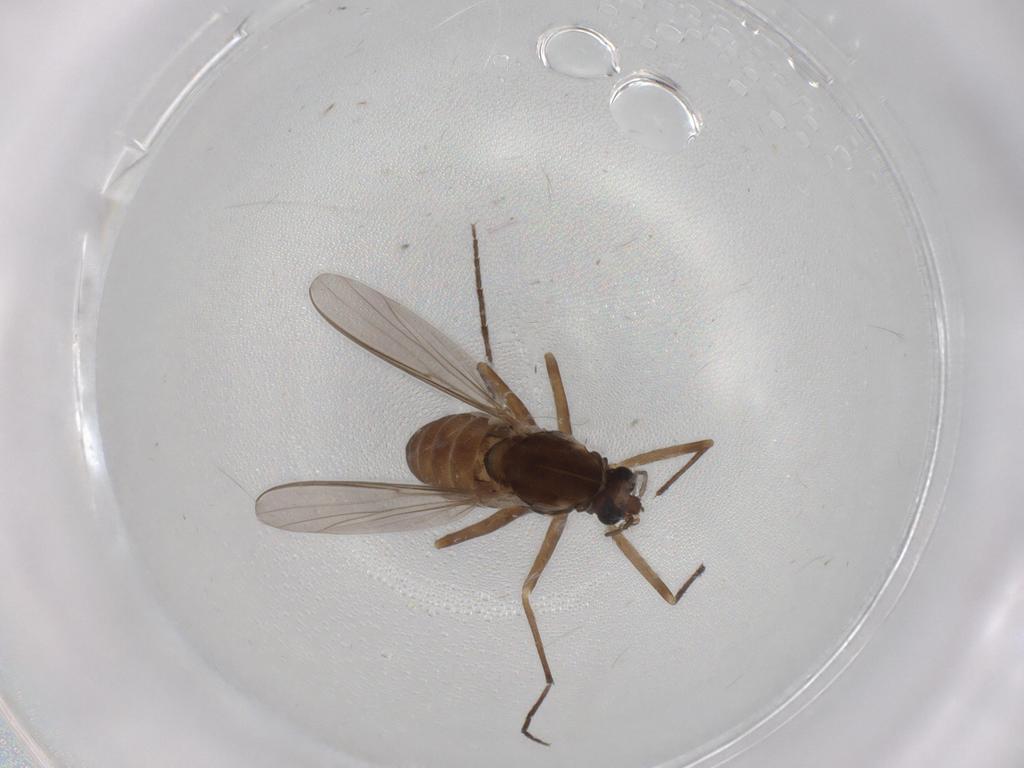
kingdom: Animalia
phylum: Arthropoda
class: Insecta
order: Diptera
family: Chironomidae
